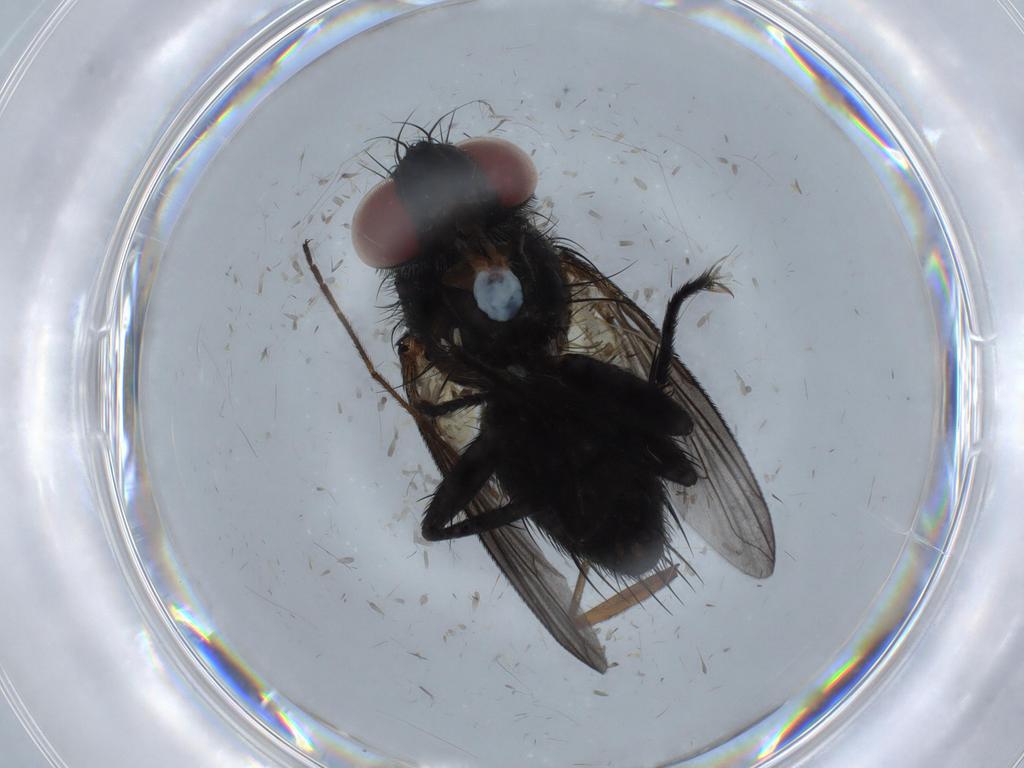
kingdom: Animalia
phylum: Arthropoda
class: Insecta
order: Diptera
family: Tachinidae
